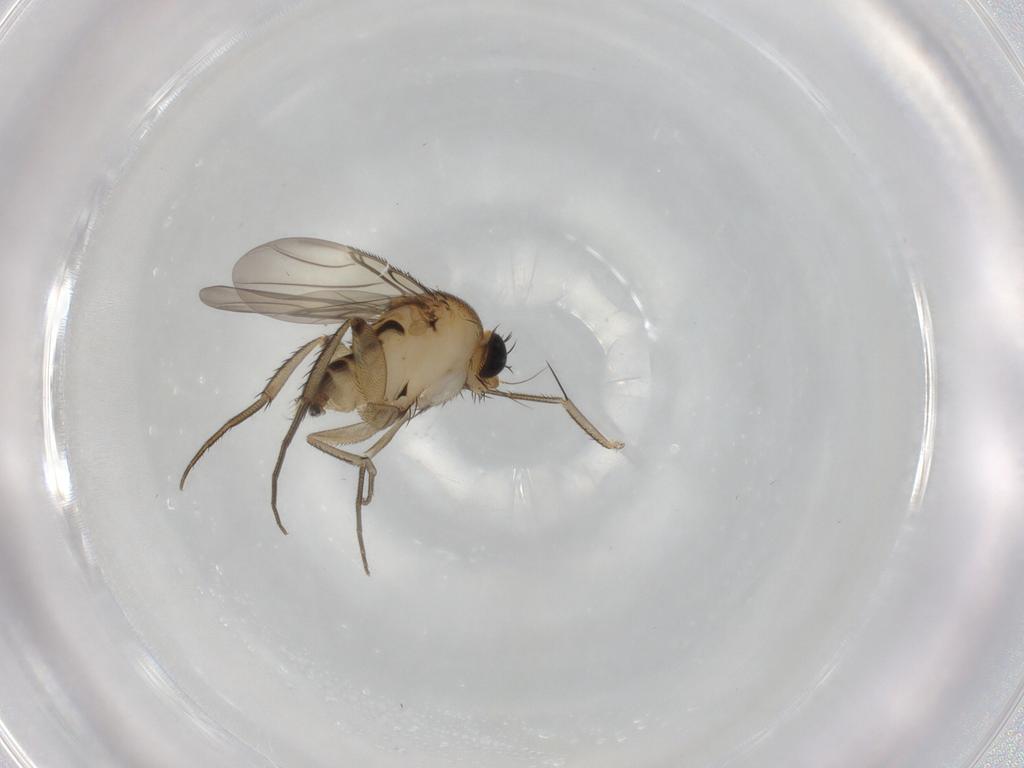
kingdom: Animalia
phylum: Arthropoda
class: Insecta
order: Diptera
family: Phoridae
